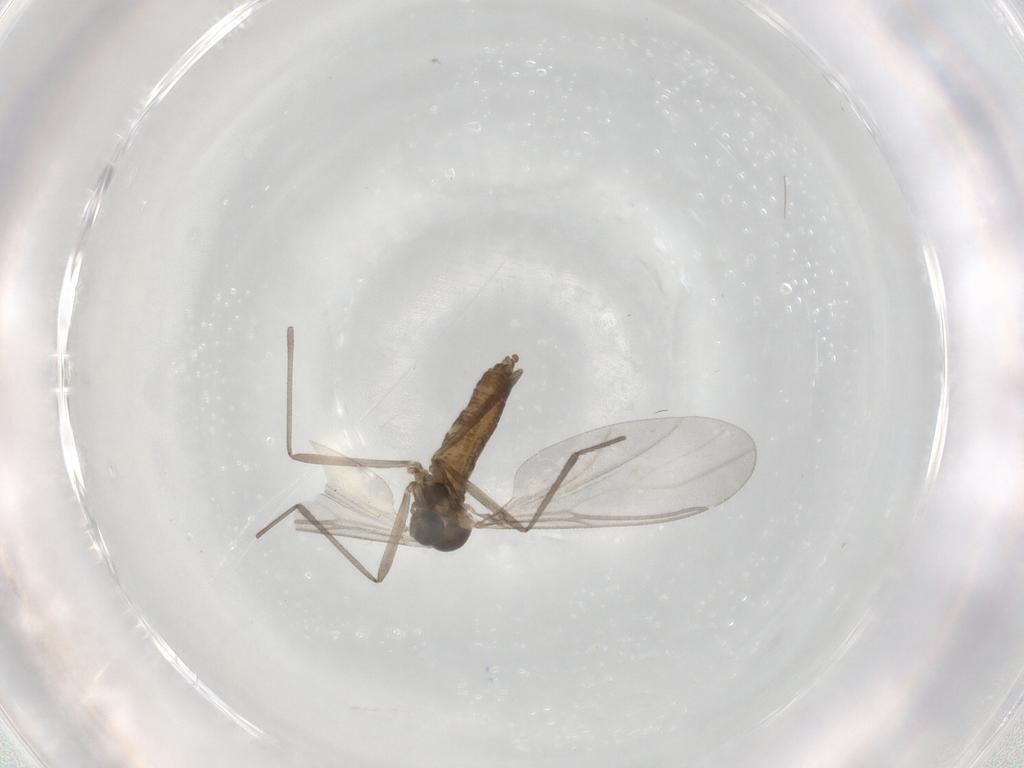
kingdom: Animalia
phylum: Arthropoda
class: Insecta
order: Diptera
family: Cecidomyiidae
